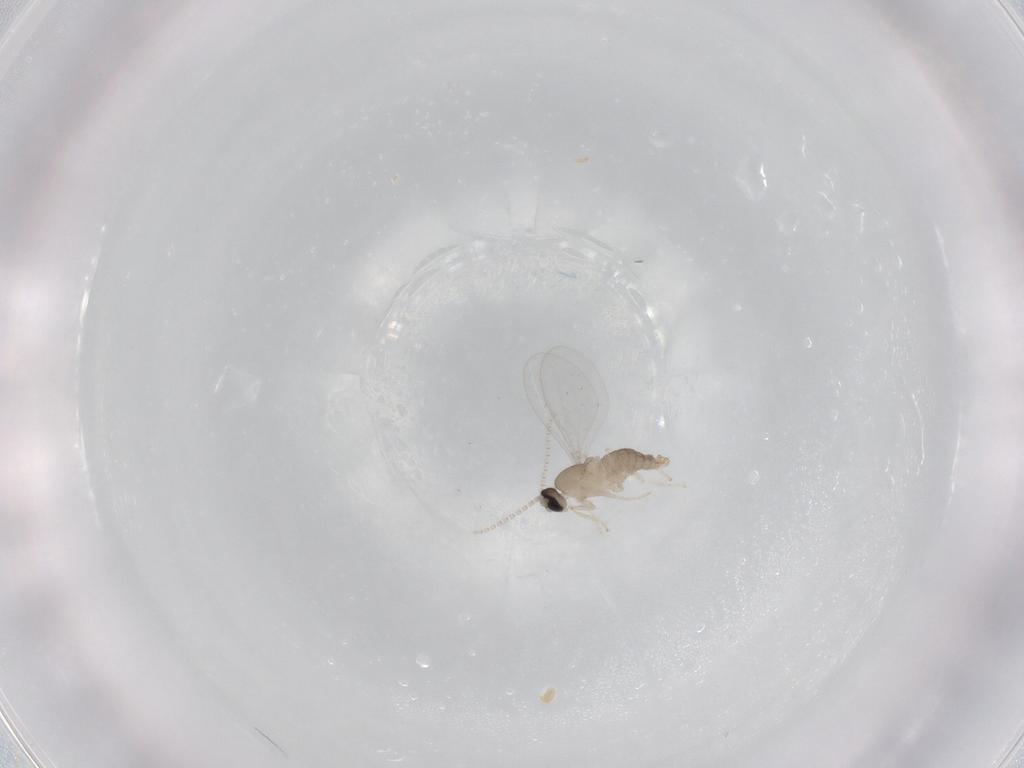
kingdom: Animalia
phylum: Arthropoda
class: Insecta
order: Diptera
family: Cecidomyiidae
